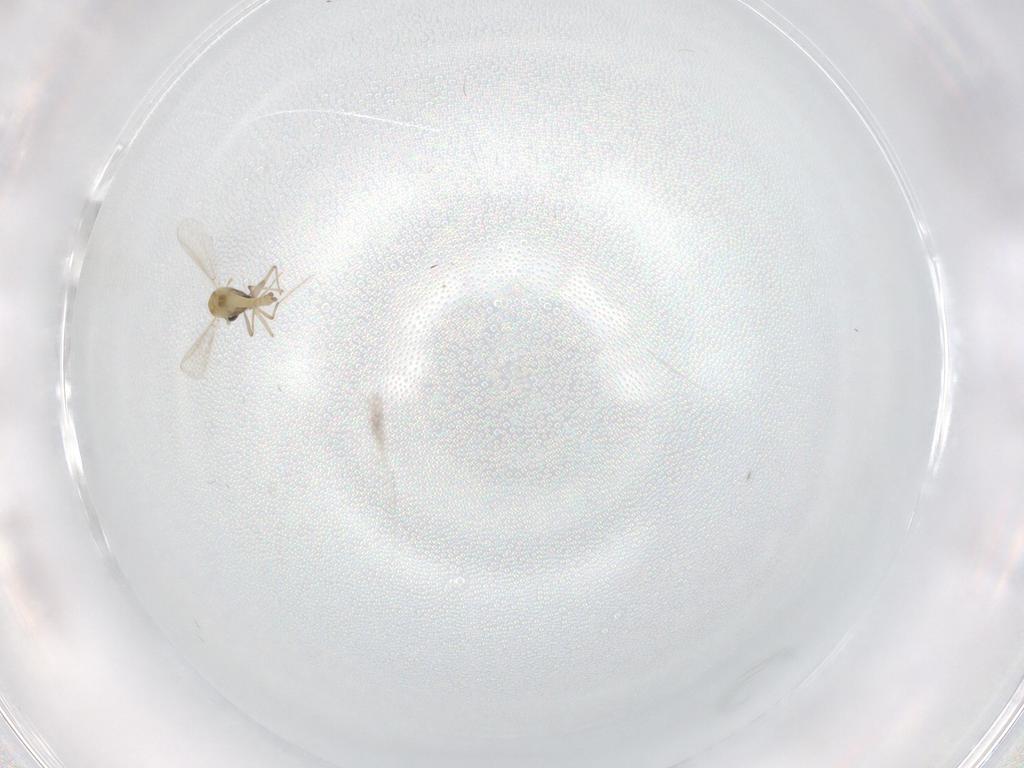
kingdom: Animalia
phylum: Arthropoda
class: Insecta
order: Diptera
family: Chironomidae
